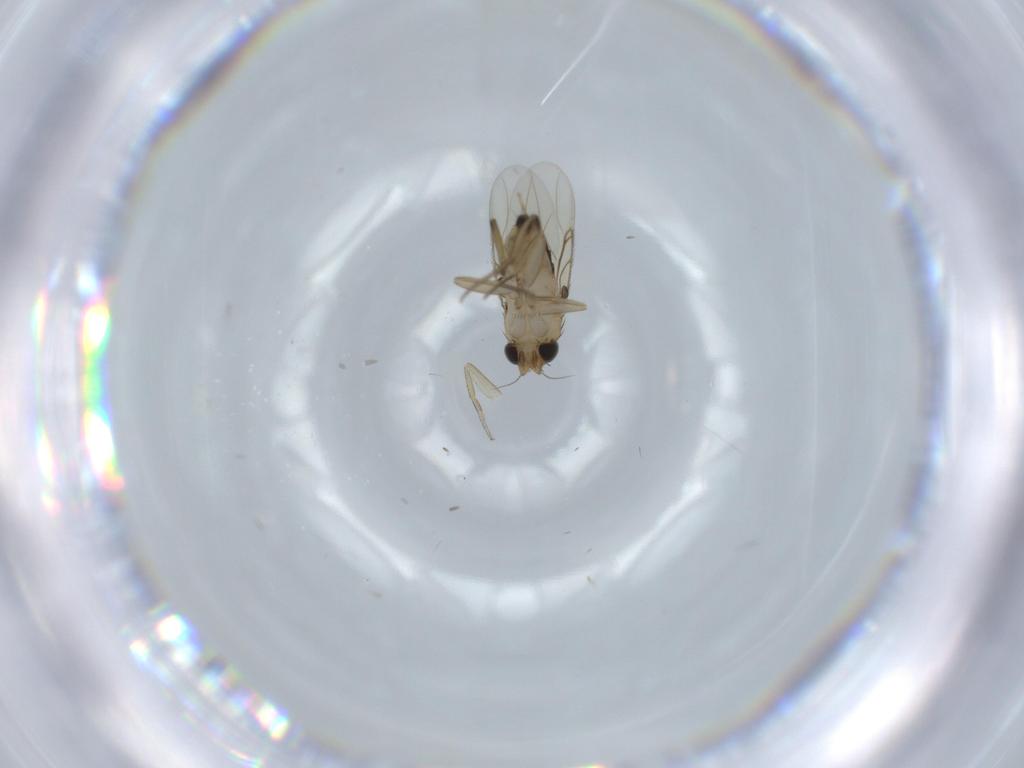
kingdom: Animalia
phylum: Arthropoda
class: Insecta
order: Diptera
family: Phoridae
